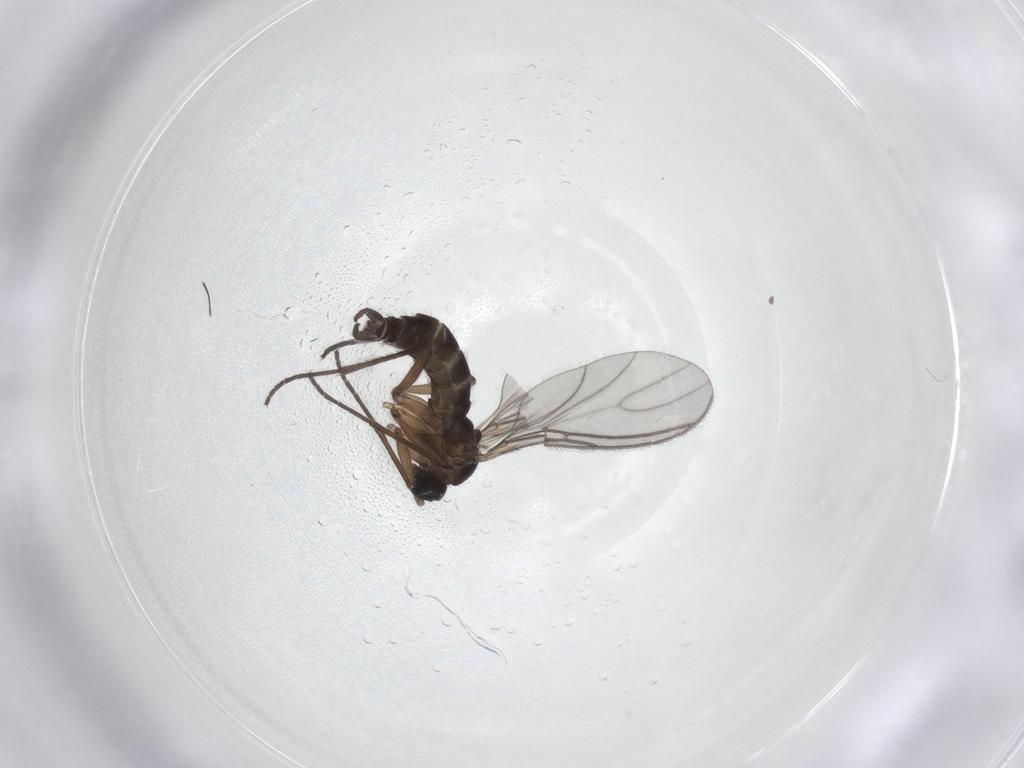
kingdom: Animalia
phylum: Arthropoda
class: Insecta
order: Diptera
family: Sciaridae
